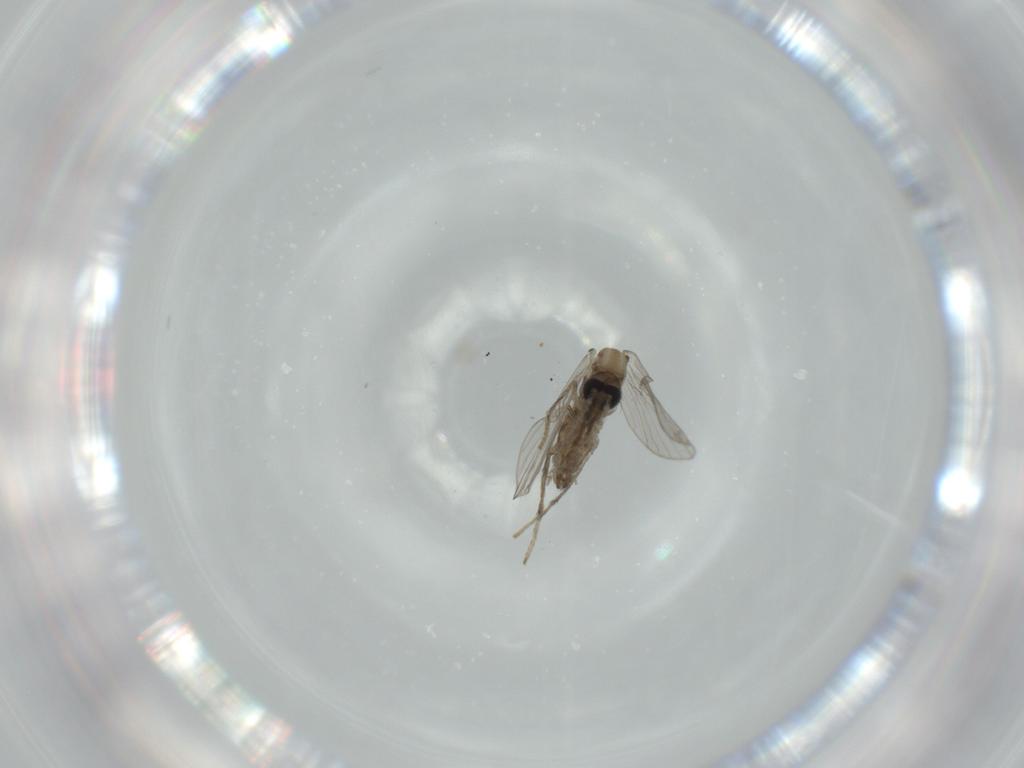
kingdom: Animalia
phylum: Arthropoda
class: Insecta
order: Diptera
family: Psychodidae
